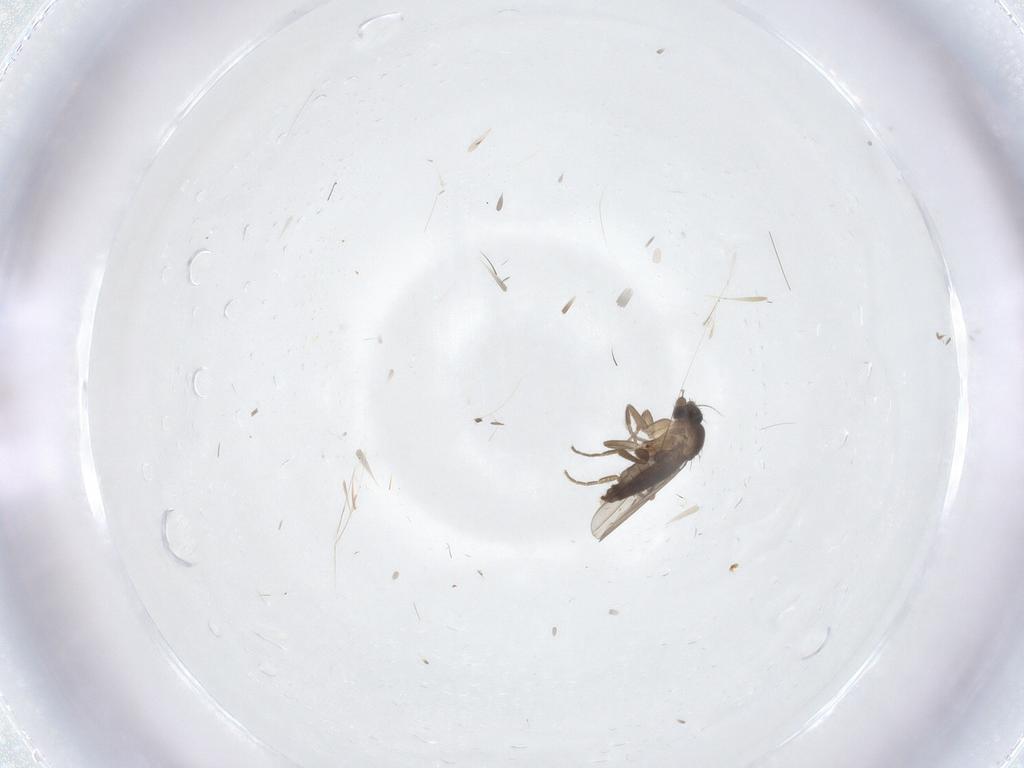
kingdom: Animalia
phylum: Arthropoda
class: Insecta
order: Diptera
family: Phoridae
